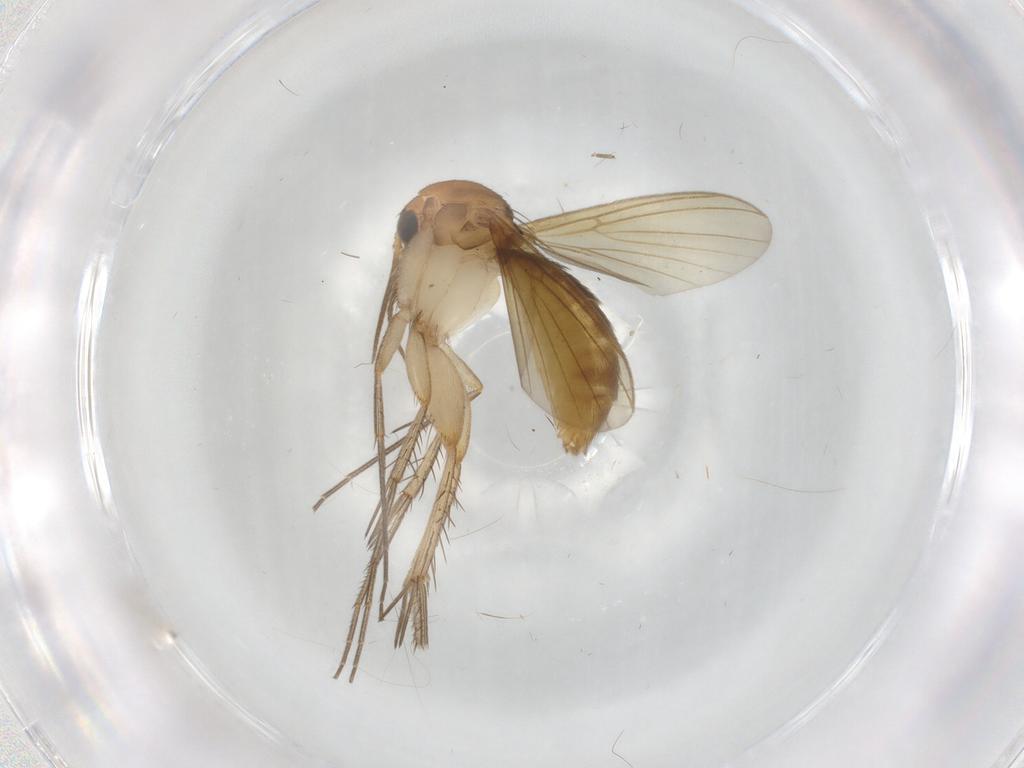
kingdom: Animalia
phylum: Arthropoda
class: Insecta
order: Diptera
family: Mycetophilidae
